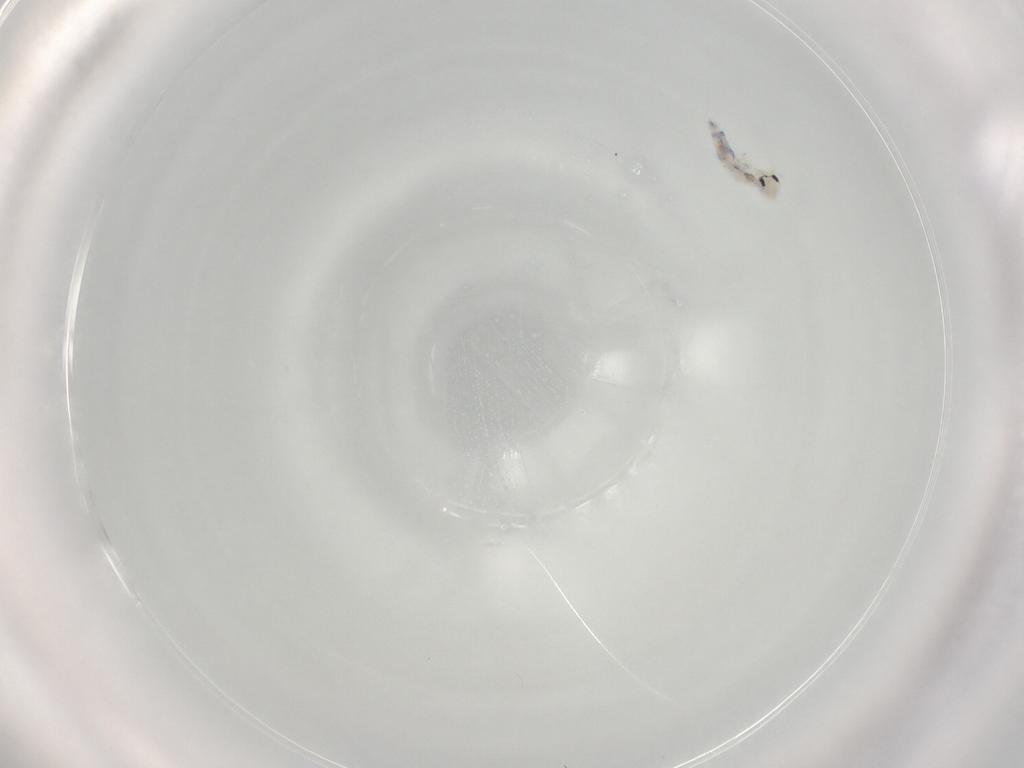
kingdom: Animalia
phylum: Arthropoda
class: Collembola
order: Entomobryomorpha
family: Entomobryidae
